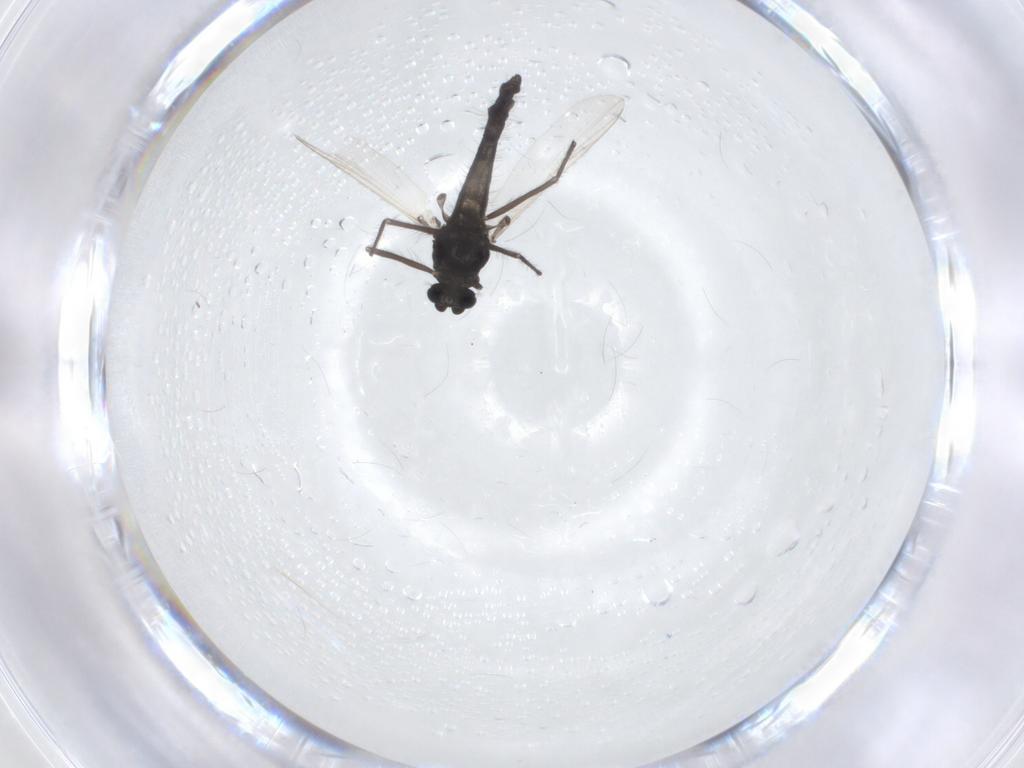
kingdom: Animalia
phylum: Arthropoda
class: Insecta
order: Diptera
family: Chironomidae
